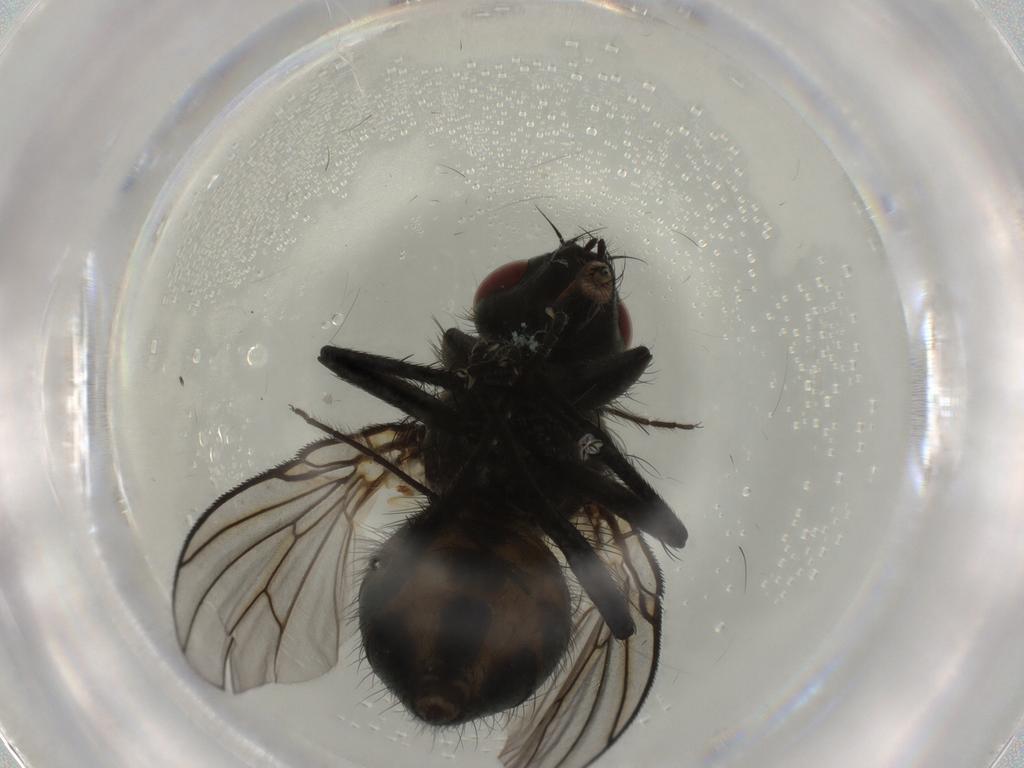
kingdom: Animalia
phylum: Arthropoda
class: Insecta
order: Diptera
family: Muscidae
